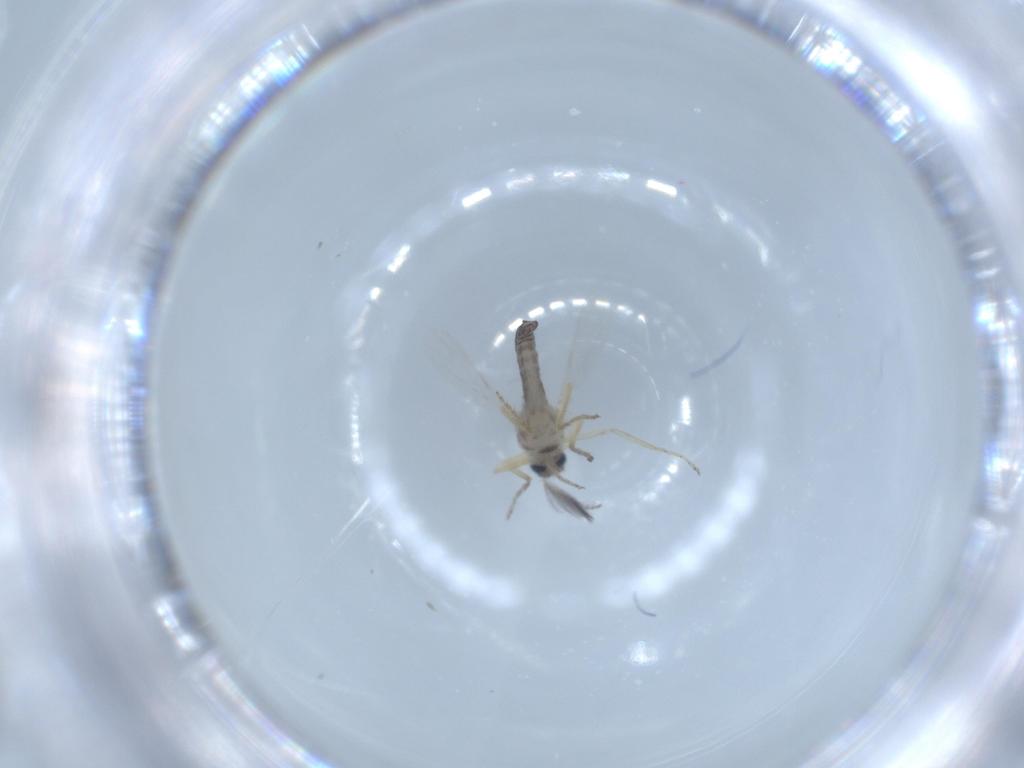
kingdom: Animalia
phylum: Arthropoda
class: Insecta
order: Diptera
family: Ceratopogonidae
